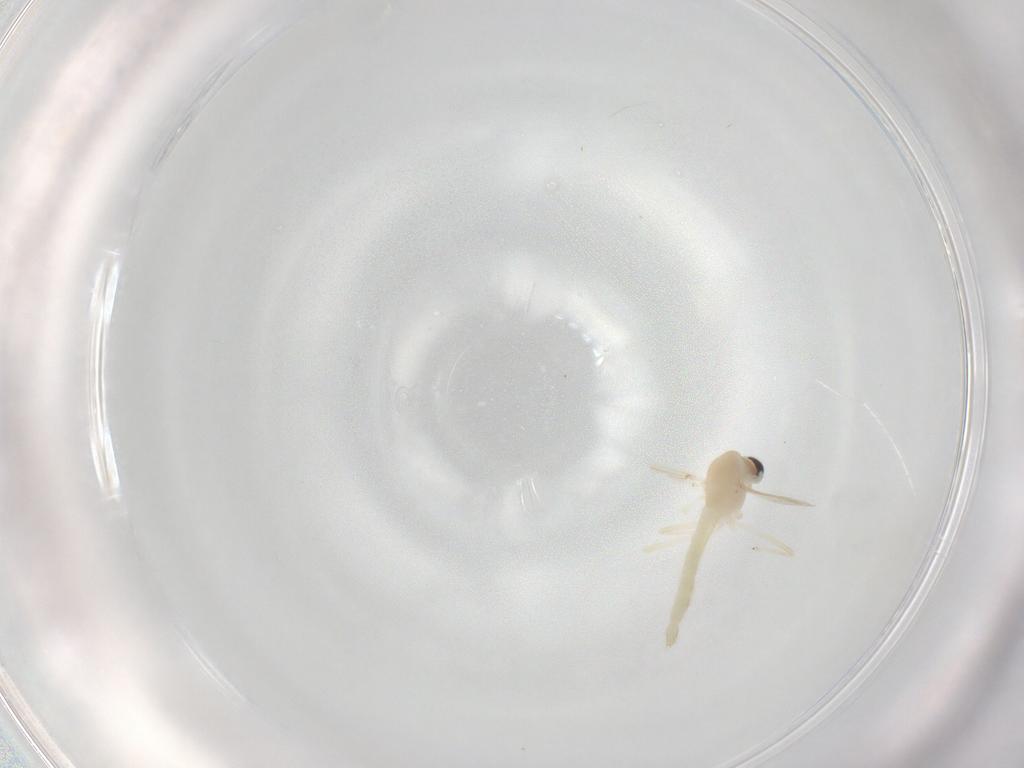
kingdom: Animalia
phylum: Arthropoda
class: Insecta
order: Diptera
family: Chironomidae
